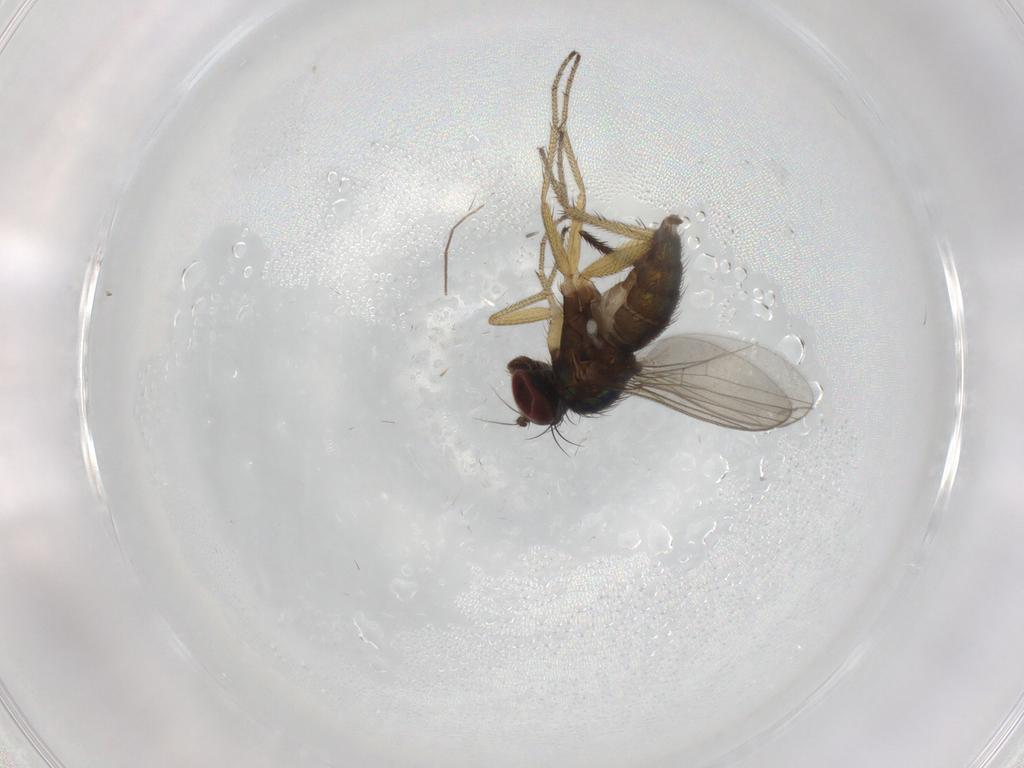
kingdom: Animalia
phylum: Arthropoda
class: Insecta
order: Diptera
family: Chironomidae
